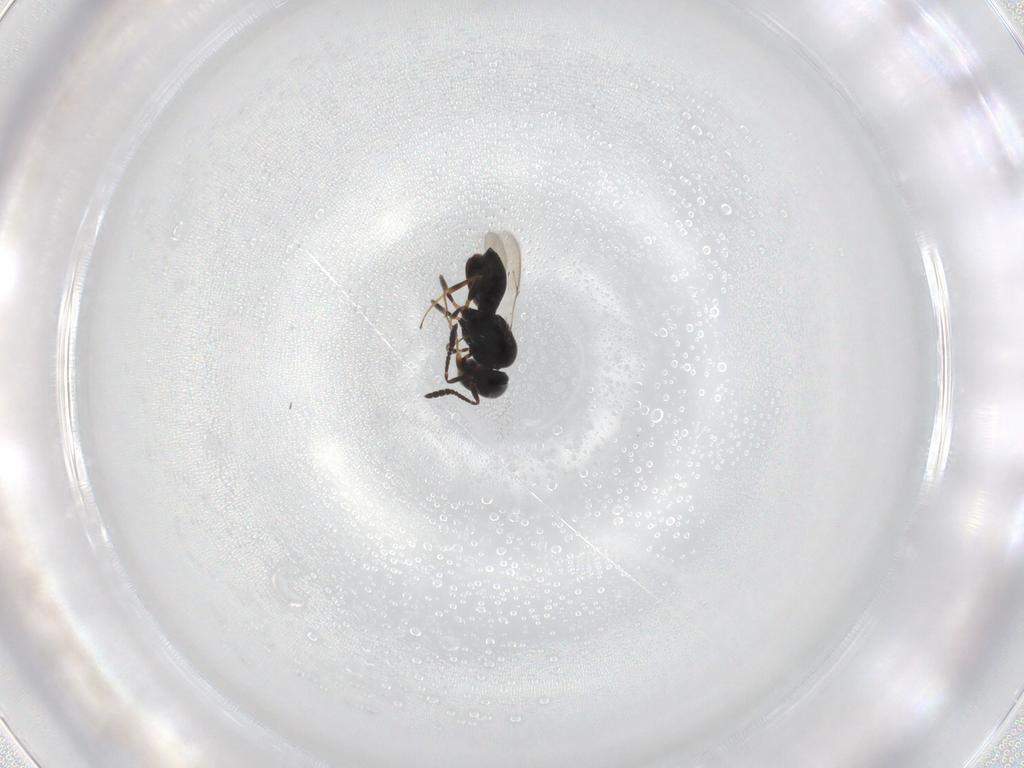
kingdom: Animalia
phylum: Arthropoda
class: Insecta
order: Hymenoptera
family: Scelionidae
